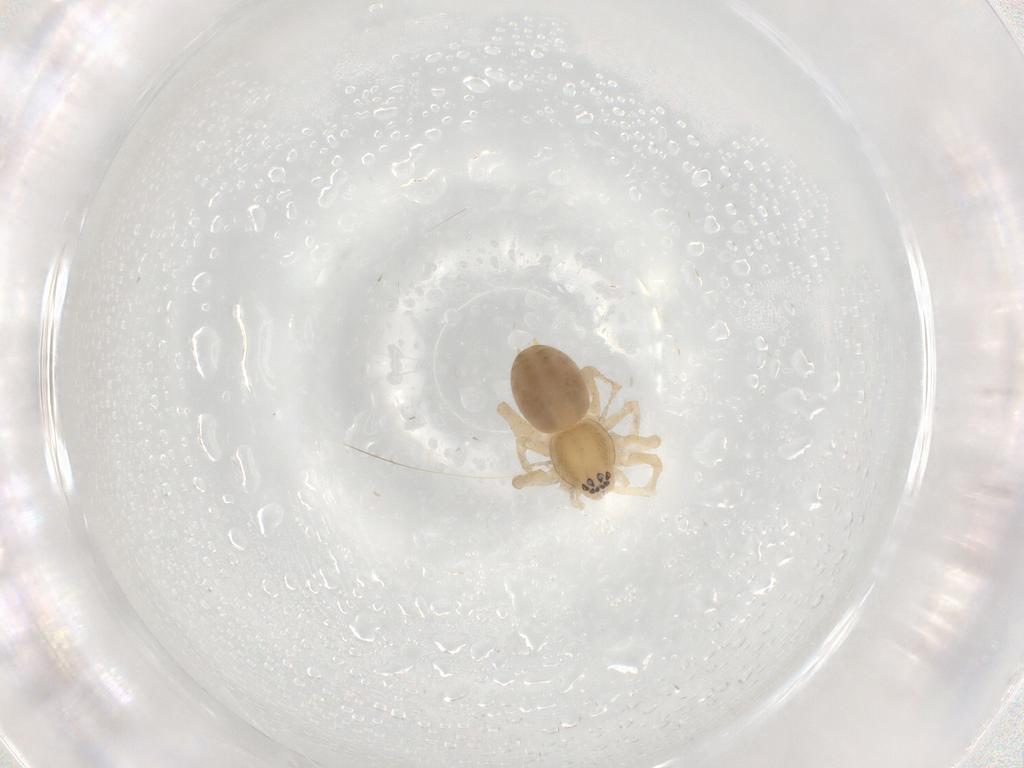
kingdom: Animalia
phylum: Arthropoda
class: Arachnida
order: Araneae
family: Anyphaenidae
